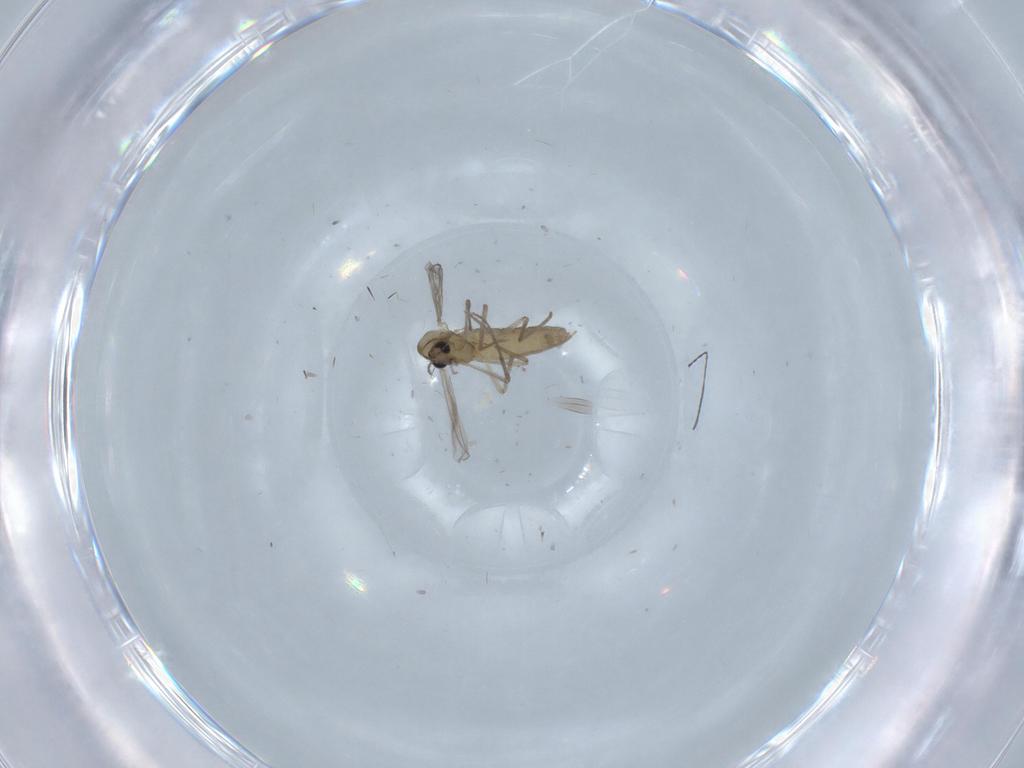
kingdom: Animalia
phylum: Arthropoda
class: Insecta
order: Diptera
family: Chironomidae
